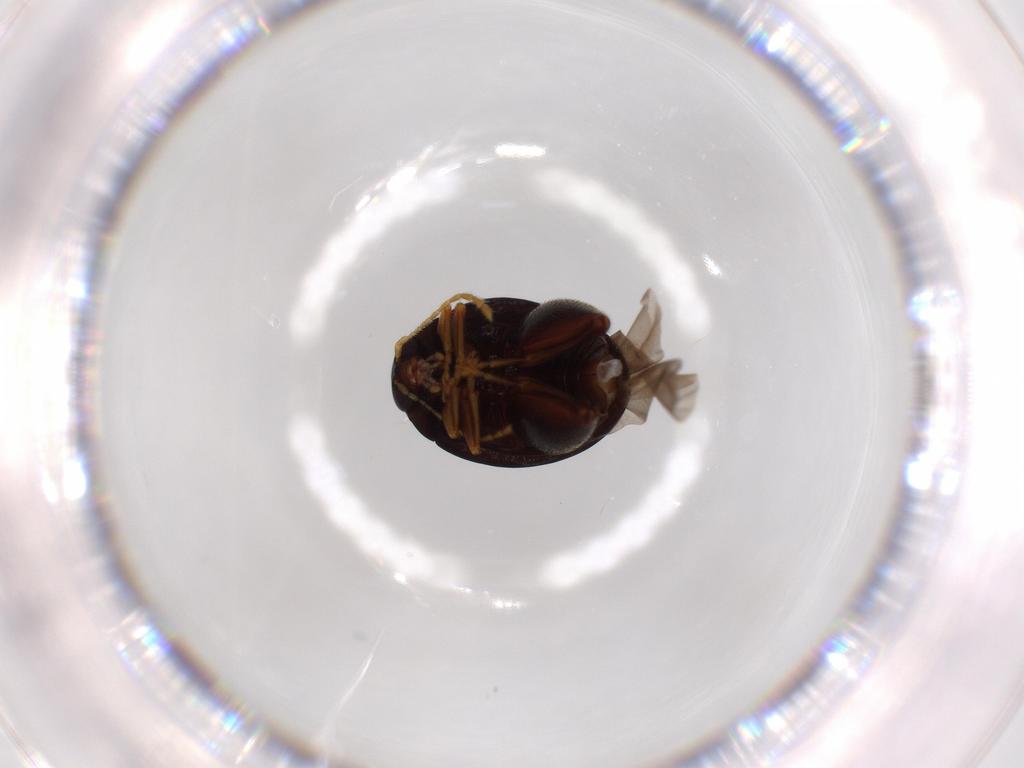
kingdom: Animalia
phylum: Arthropoda
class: Insecta
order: Coleoptera
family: Chrysomelidae
